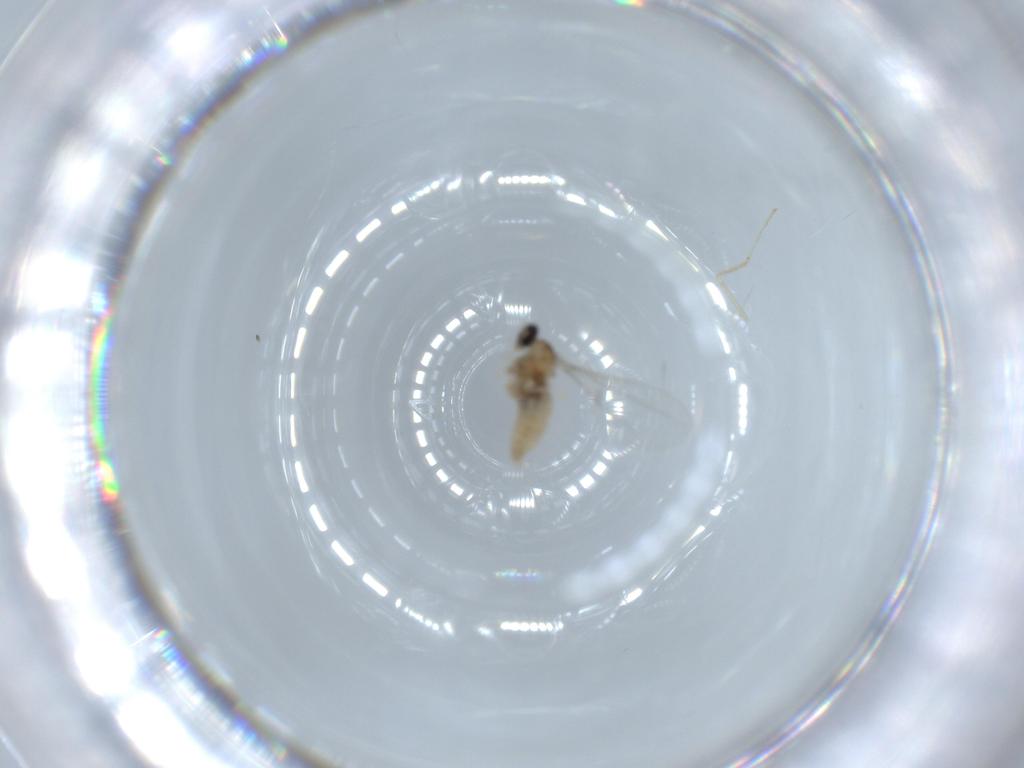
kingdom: Animalia
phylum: Arthropoda
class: Insecta
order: Diptera
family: Cecidomyiidae
